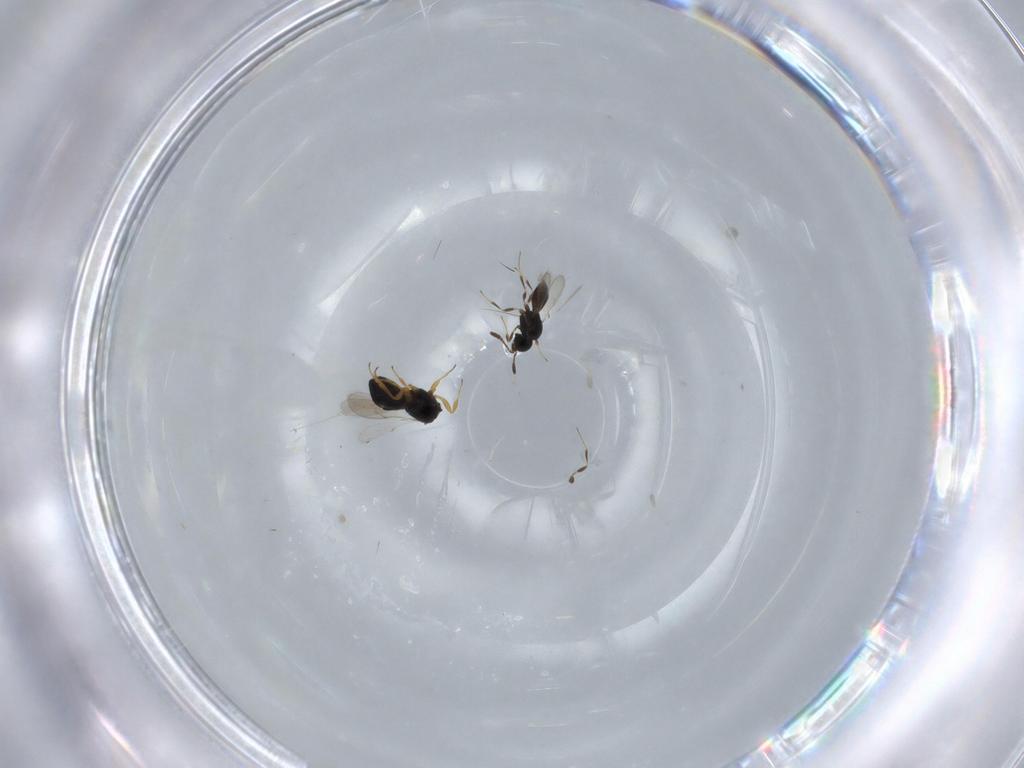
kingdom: Animalia
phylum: Arthropoda
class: Insecta
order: Hymenoptera
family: Scelionidae
